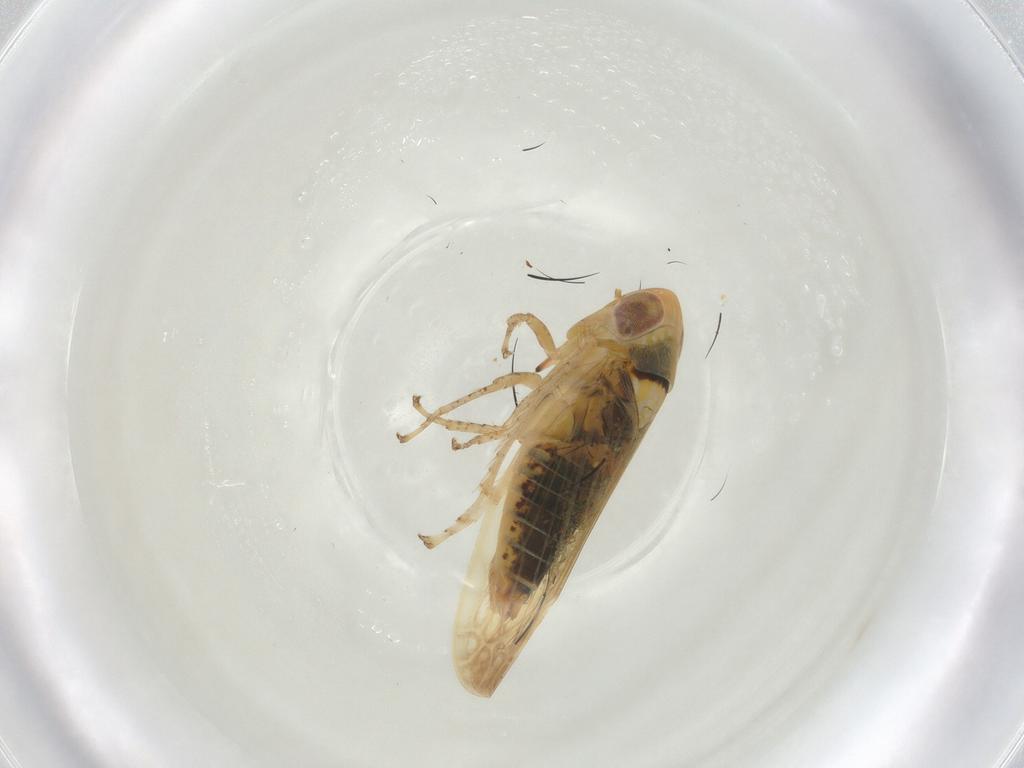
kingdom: Animalia
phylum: Arthropoda
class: Insecta
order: Hemiptera
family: Cicadellidae
